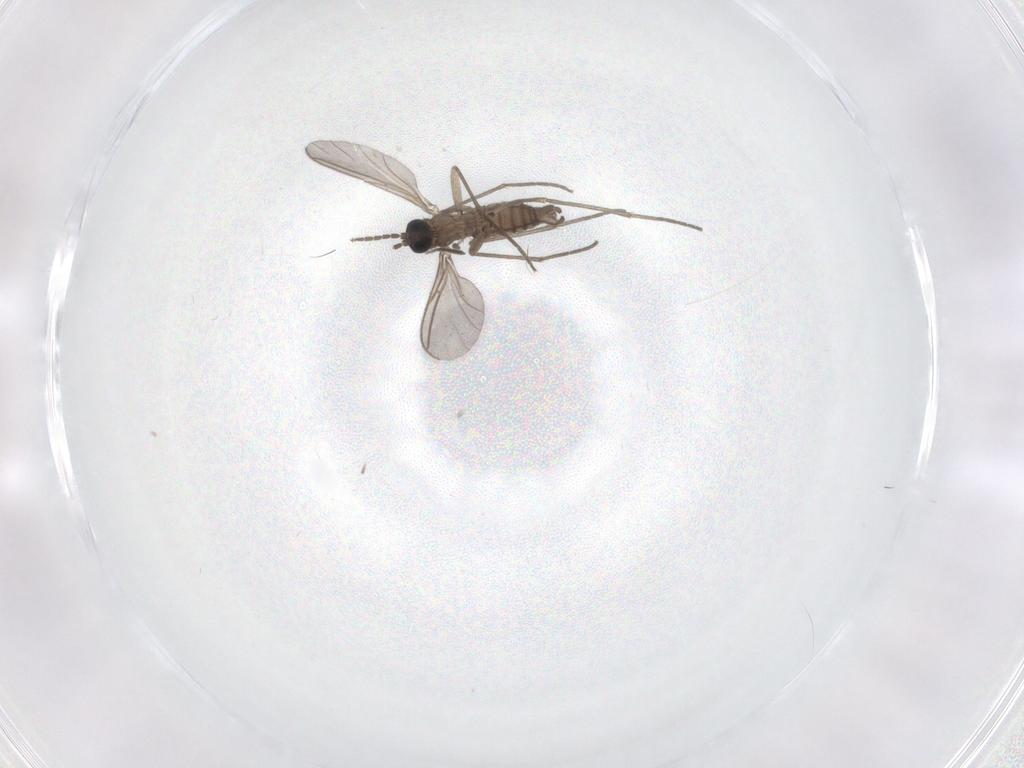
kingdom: Animalia
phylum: Arthropoda
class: Insecta
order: Diptera
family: Sciaridae
